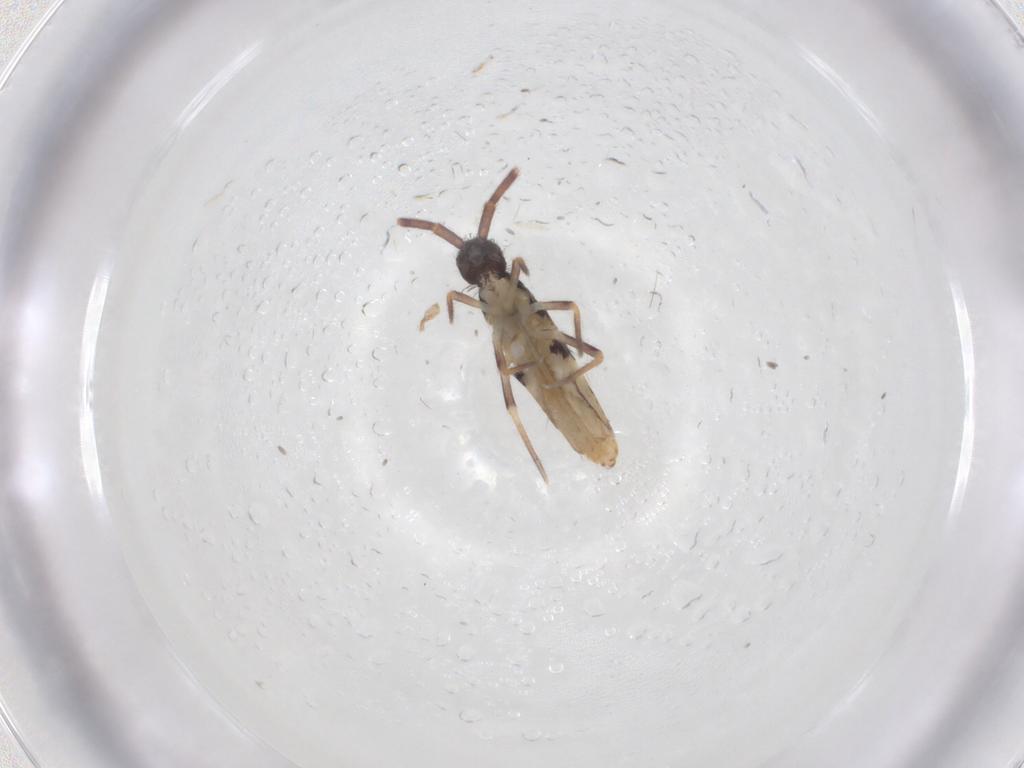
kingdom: Animalia
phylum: Arthropoda
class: Collembola
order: Entomobryomorpha
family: Entomobryidae
